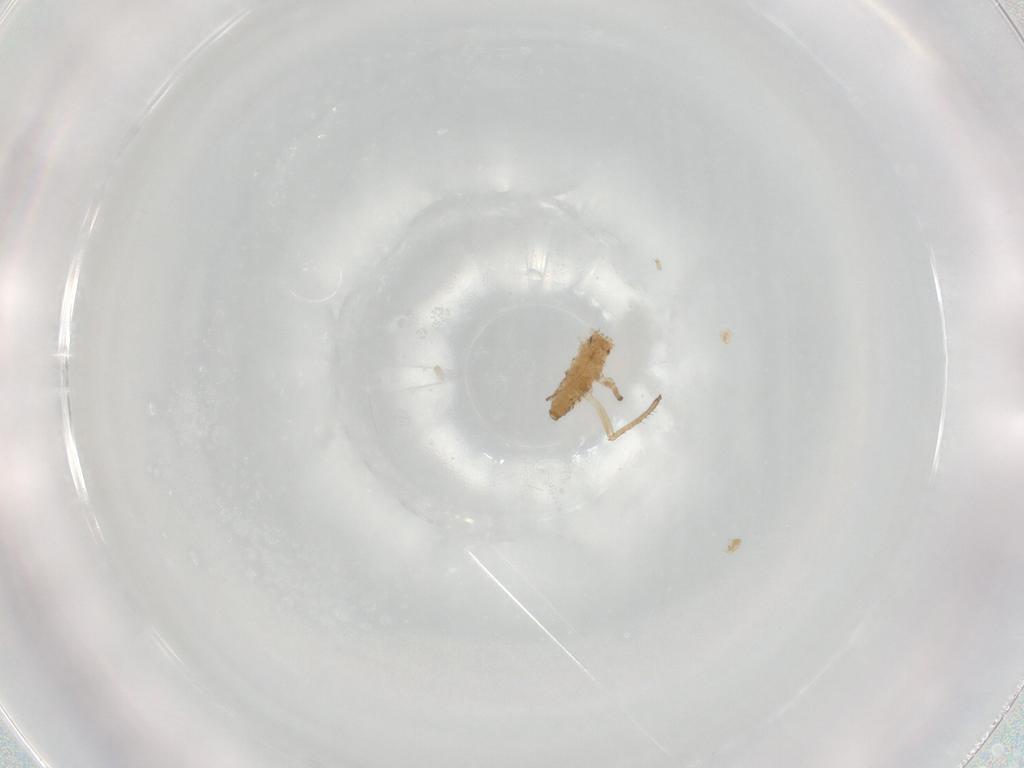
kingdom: Animalia
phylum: Arthropoda
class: Insecta
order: Hemiptera
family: Aphididae
